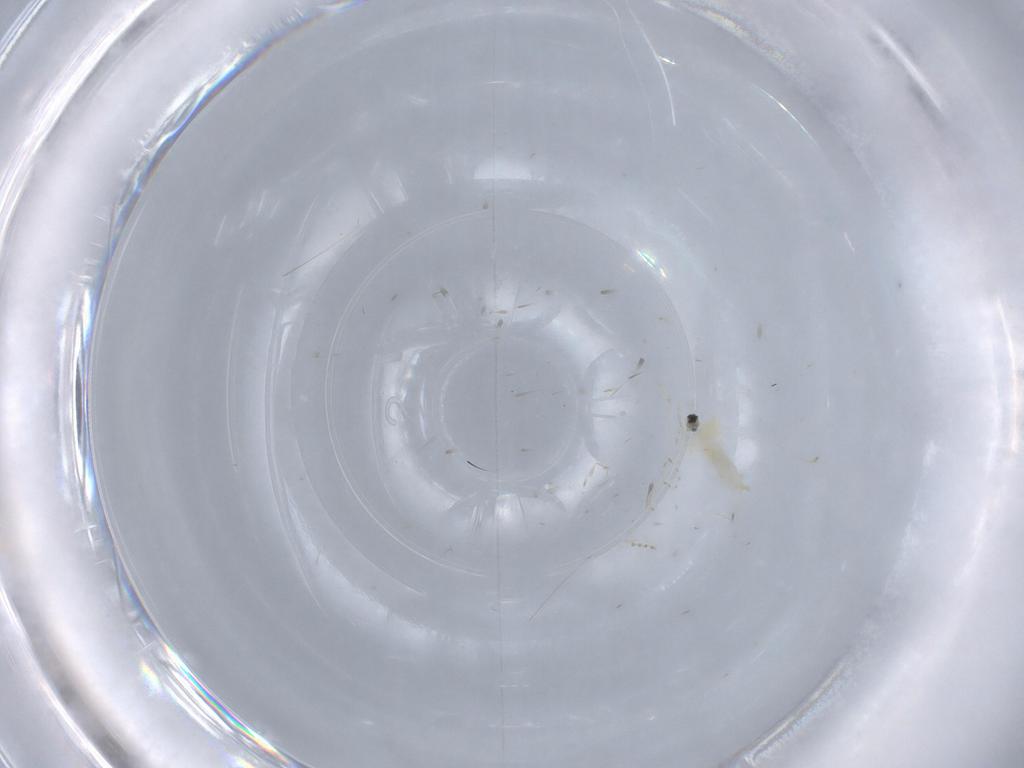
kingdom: Animalia
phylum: Arthropoda
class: Insecta
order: Diptera
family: Cecidomyiidae
